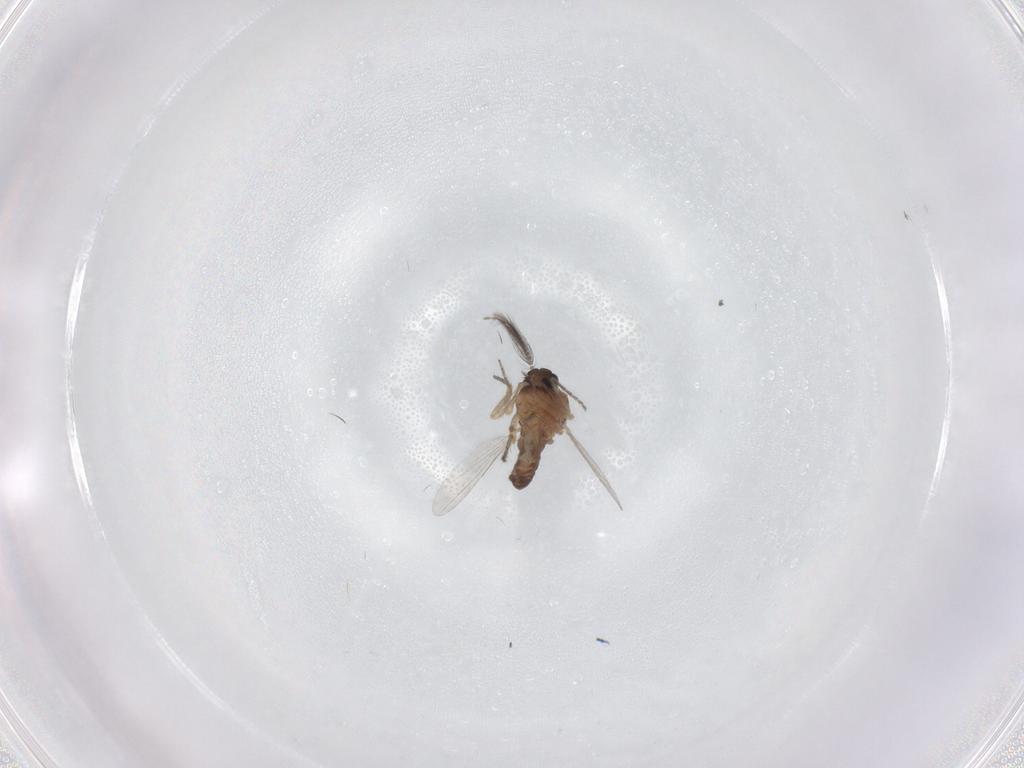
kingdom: Animalia
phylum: Arthropoda
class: Insecta
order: Diptera
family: Ceratopogonidae
